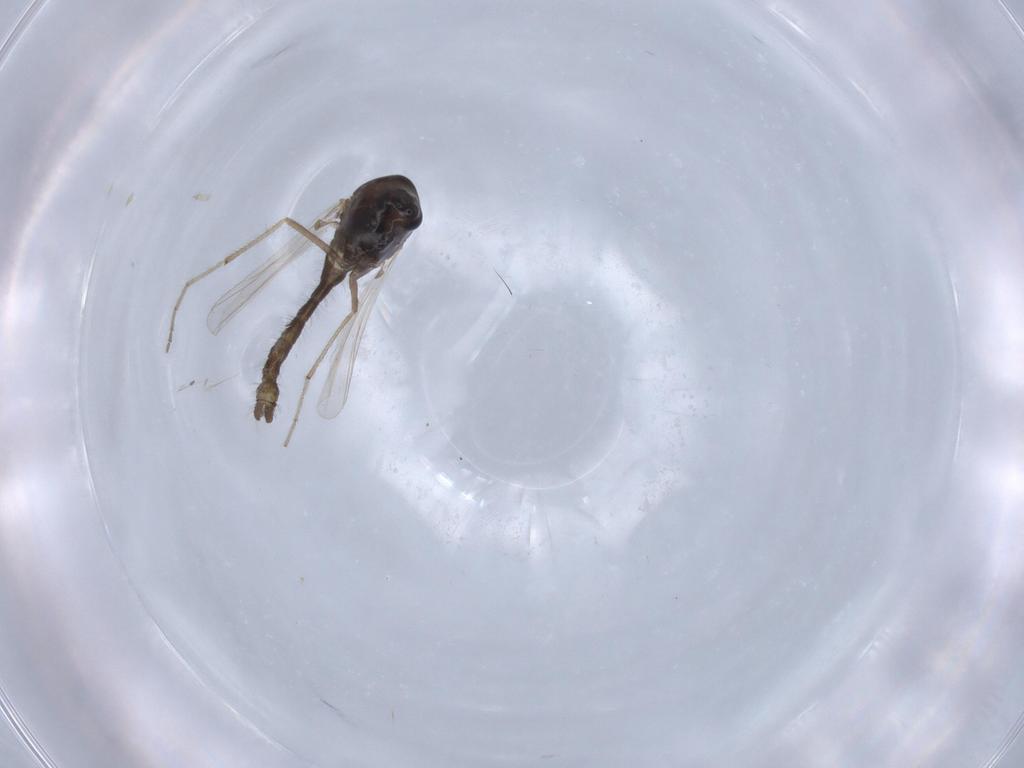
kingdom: Animalia
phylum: Arthropoda
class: Insecta
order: Diptera
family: Chironomidae
